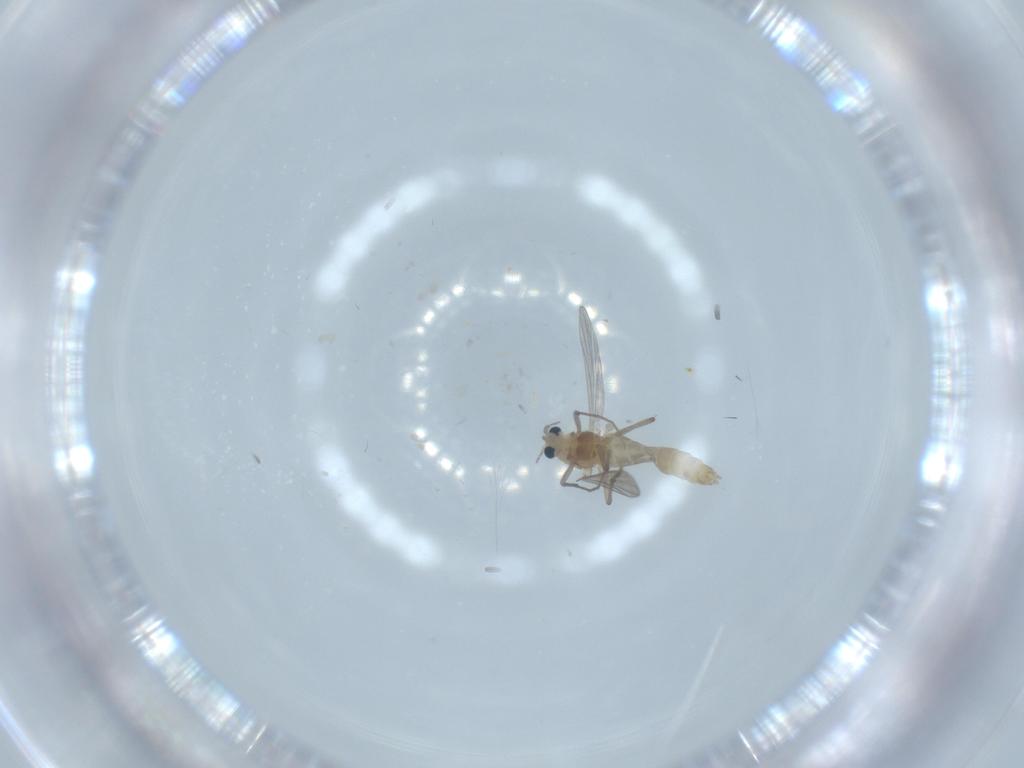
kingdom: Animalia
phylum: Arthropoda
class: Insecta
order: Diptera
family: Chironomidae
